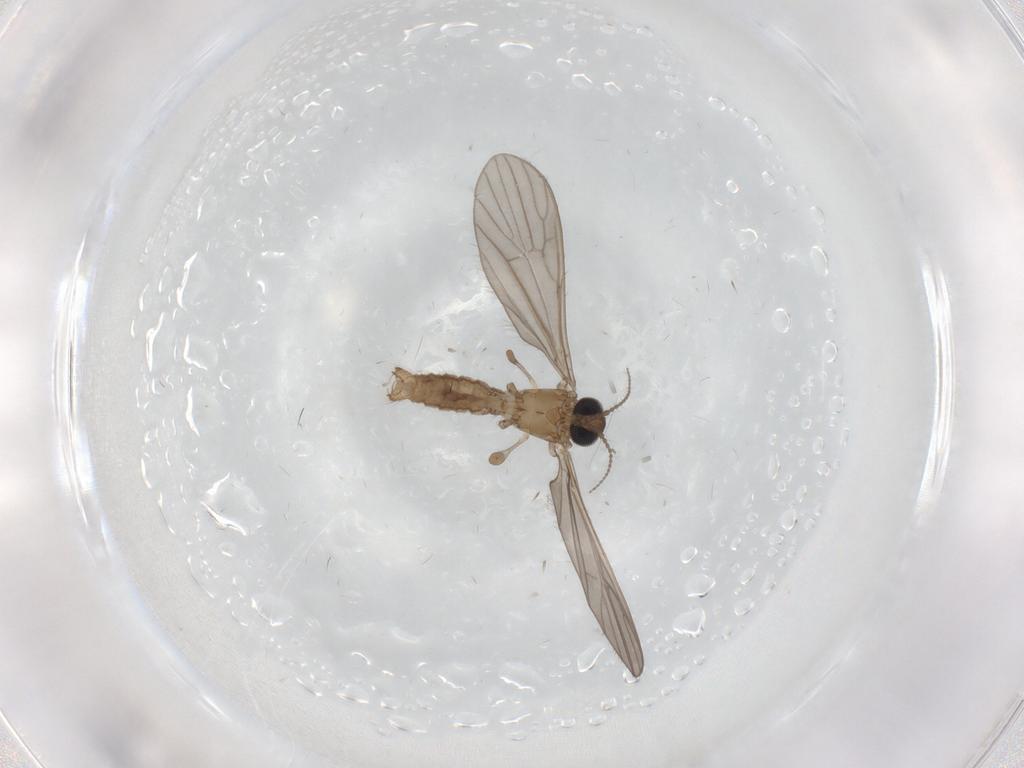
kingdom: Animalia
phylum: Arthropoda
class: Insecta
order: Diptera
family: Limoniidae
